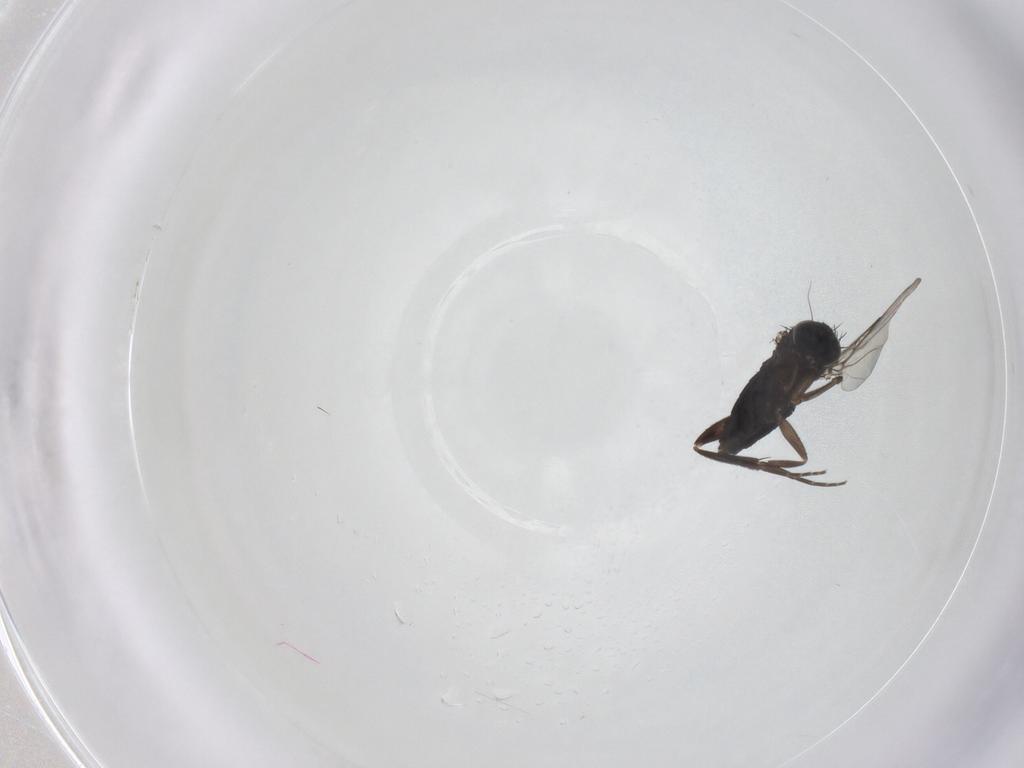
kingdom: Animalia
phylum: Arthropoda
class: Insecta
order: Diptera
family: Phoridae
